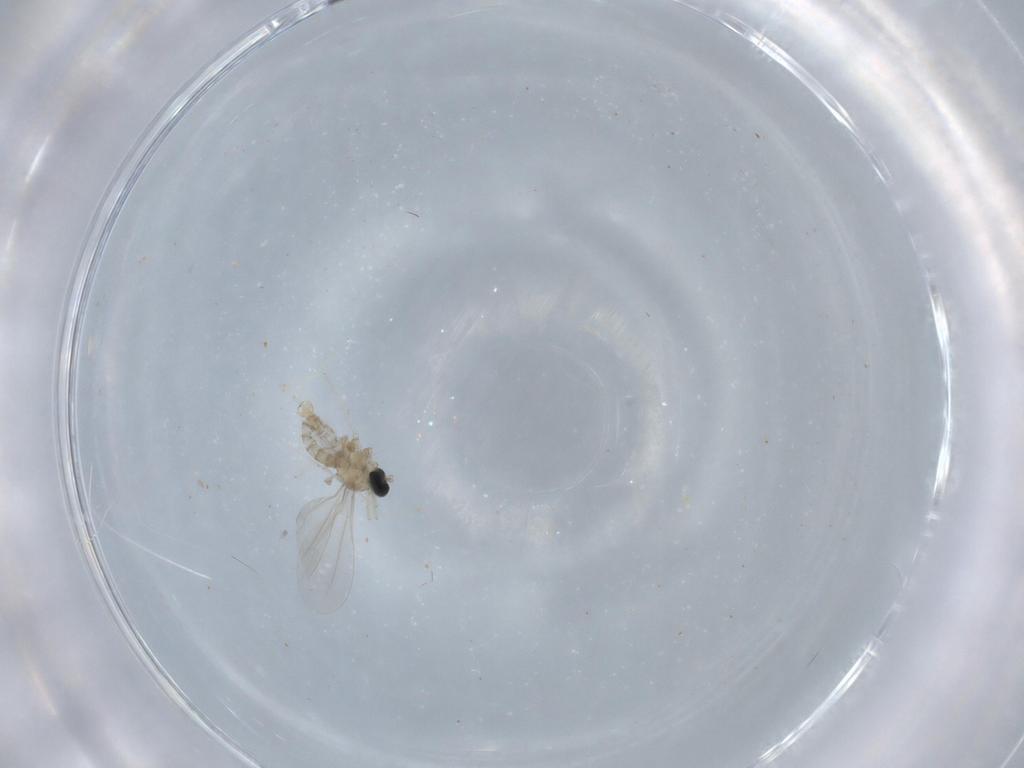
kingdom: Animalia
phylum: Arthropoda
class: Insecta
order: Diptera
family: Cecidomyiidae
